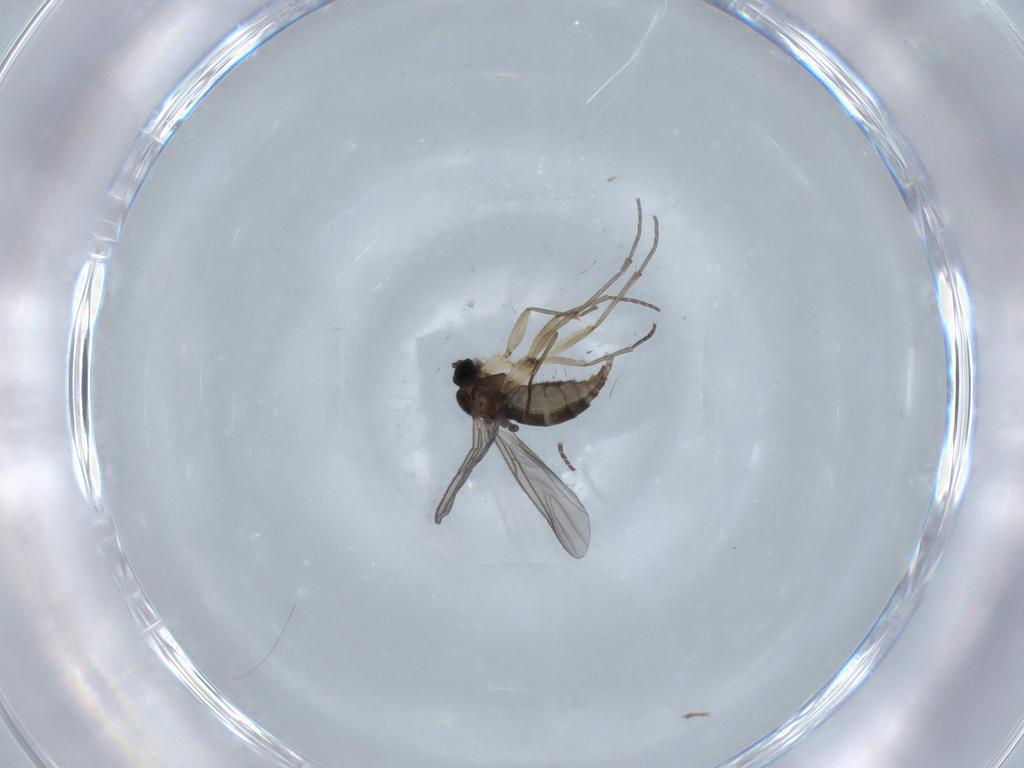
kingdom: Animalia
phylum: Arthropoda
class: Insecta
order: Diptera
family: Sciaridae
